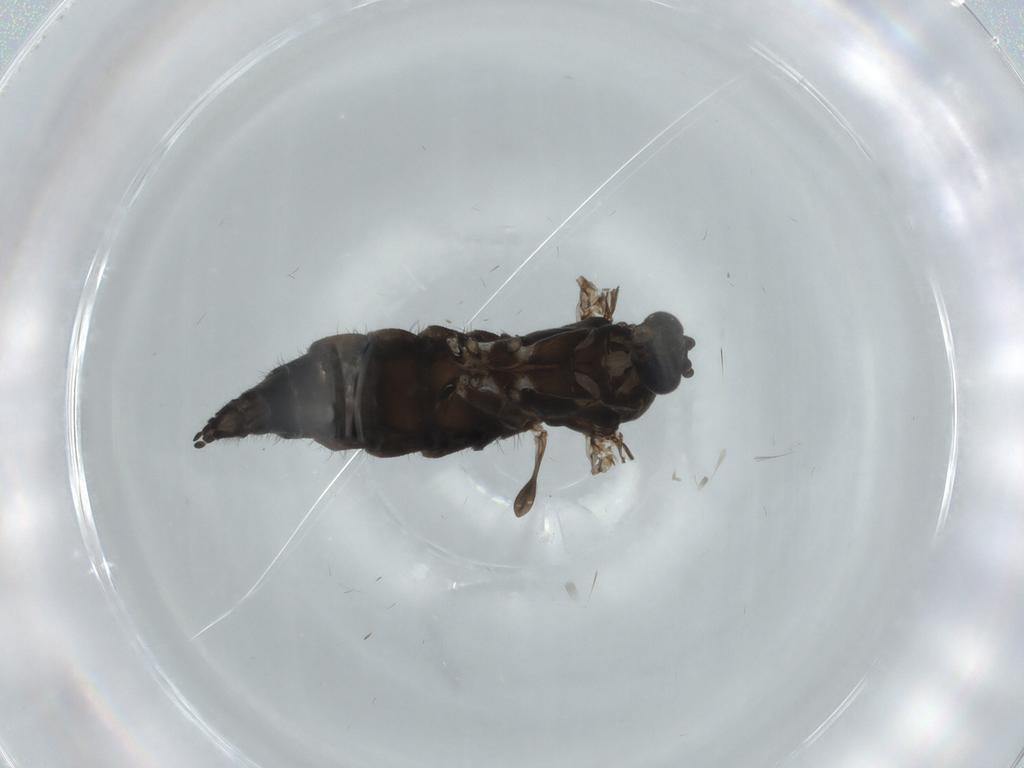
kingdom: Animalia
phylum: Arthropoda
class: Insecta
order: Diptera
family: Sciaridae
